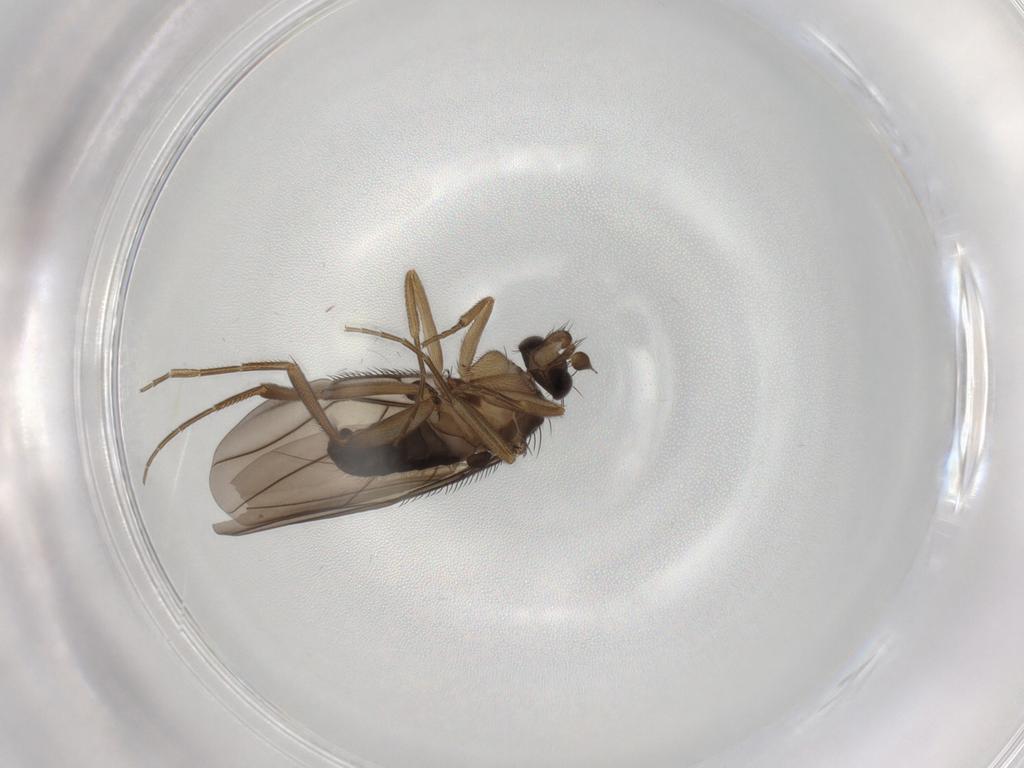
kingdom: Animalia
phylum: Arthropoda
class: Insecta
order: Diptera
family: Phoridae
